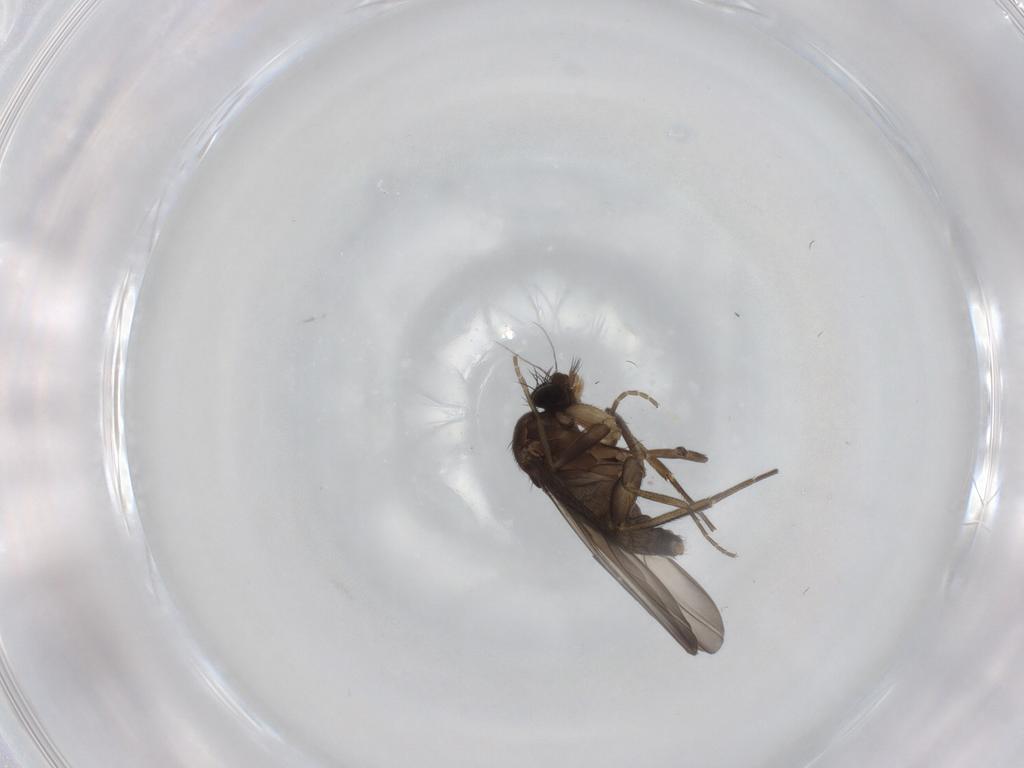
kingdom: Animalia
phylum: Arthropoda
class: Insecta
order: Diptera
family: Phoridae
